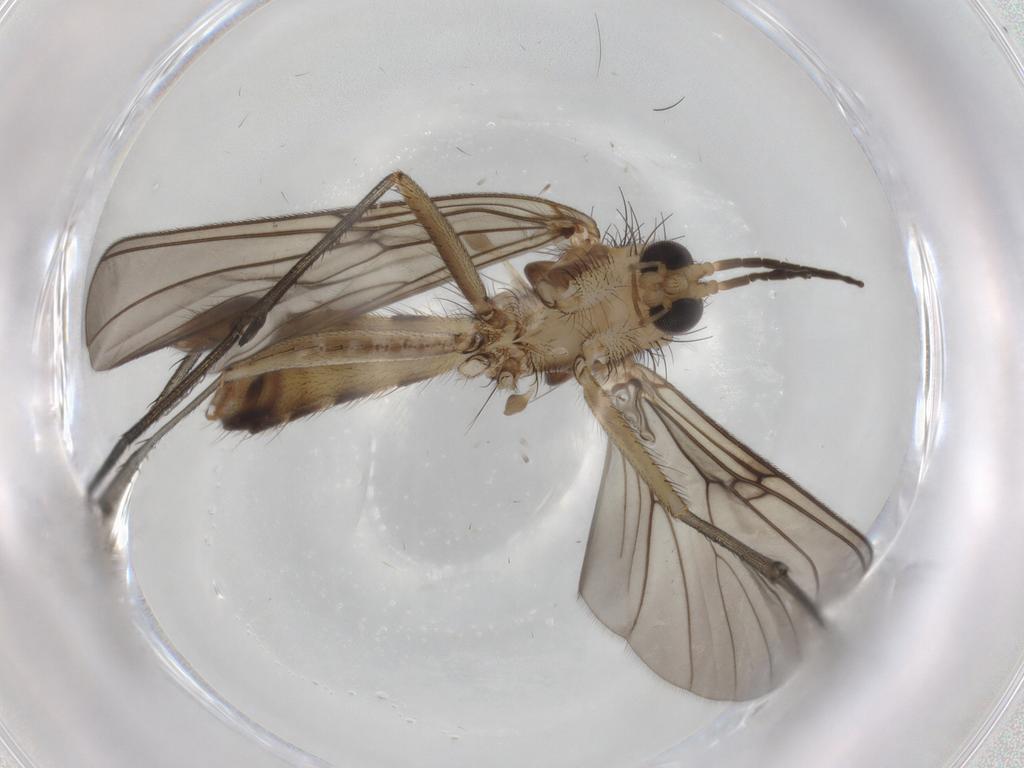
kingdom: Animalia
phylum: Arthropoda
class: Insecta
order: Diptera
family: Mycetophilidae
